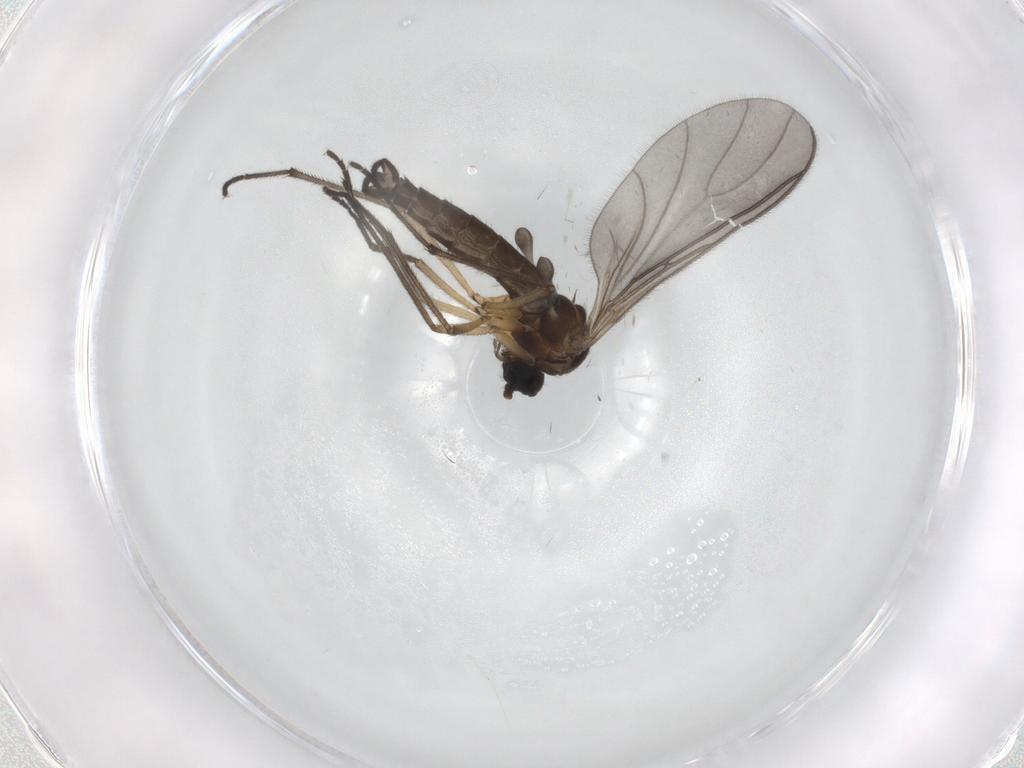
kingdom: Animalia
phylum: Arthropoda
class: Insecta
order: Diptera
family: Sciaridae
